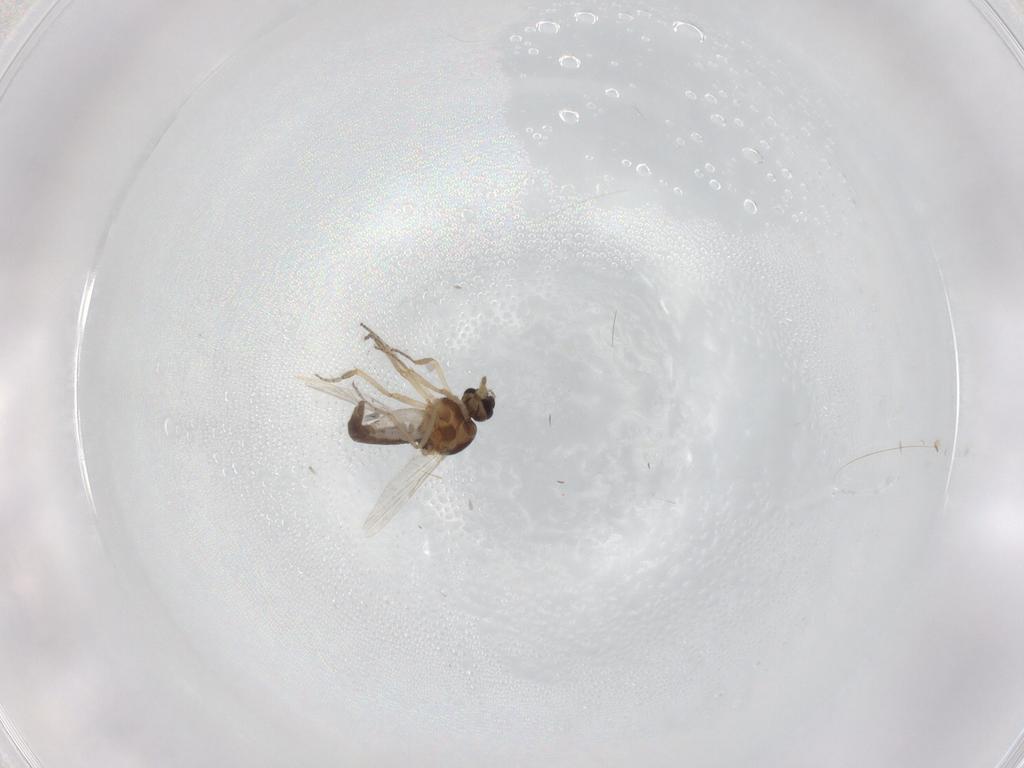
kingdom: Animalia
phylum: Arthropoda
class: Insecta
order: Diptera
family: Ceratopogonidae
